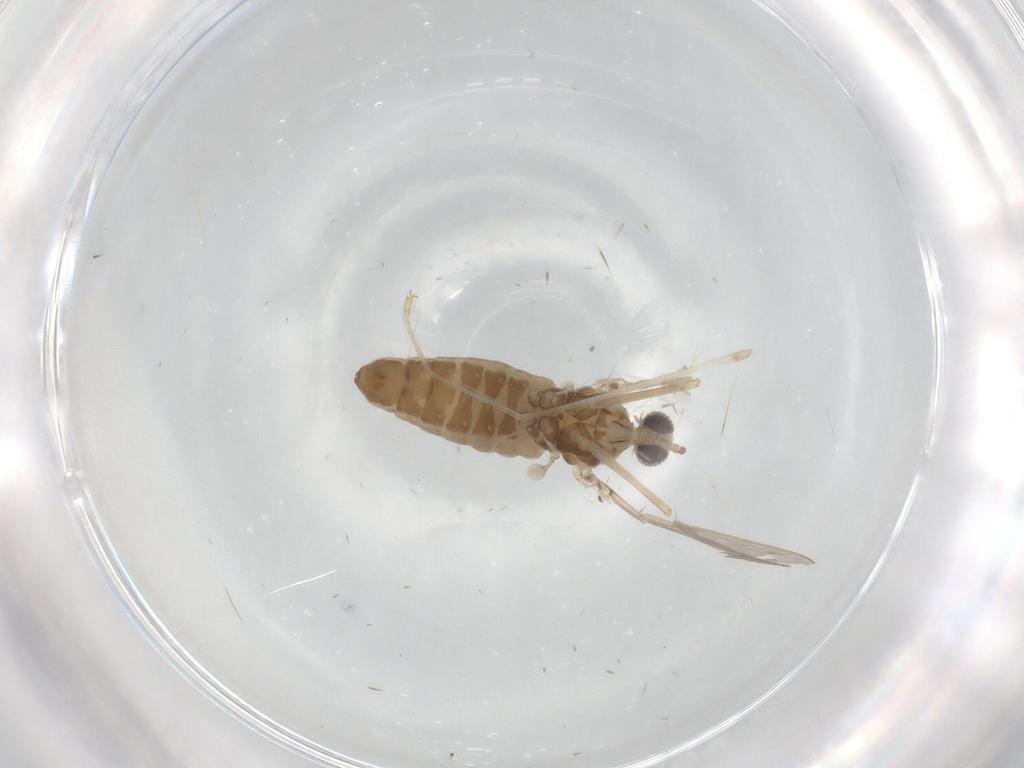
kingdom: Animalia
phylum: Arthropoda
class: Insecta
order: Diptera
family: Cecidomyiidae
